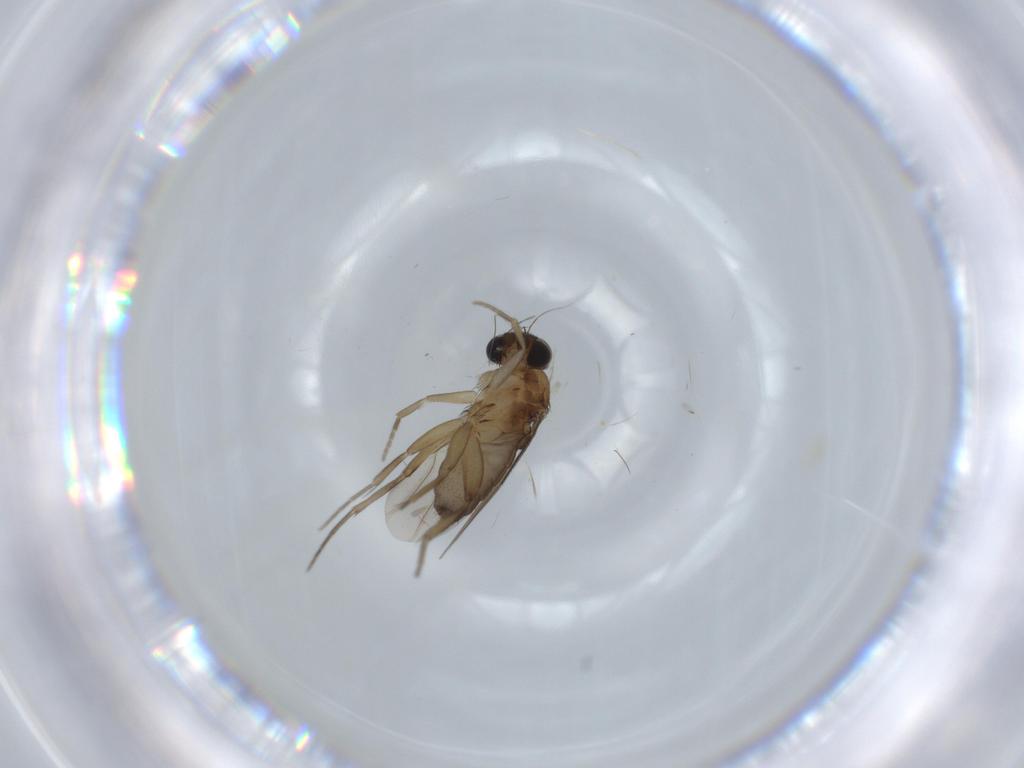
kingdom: Animalia
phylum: Arthropoda
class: Insecta
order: Diptera
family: Phoridae
